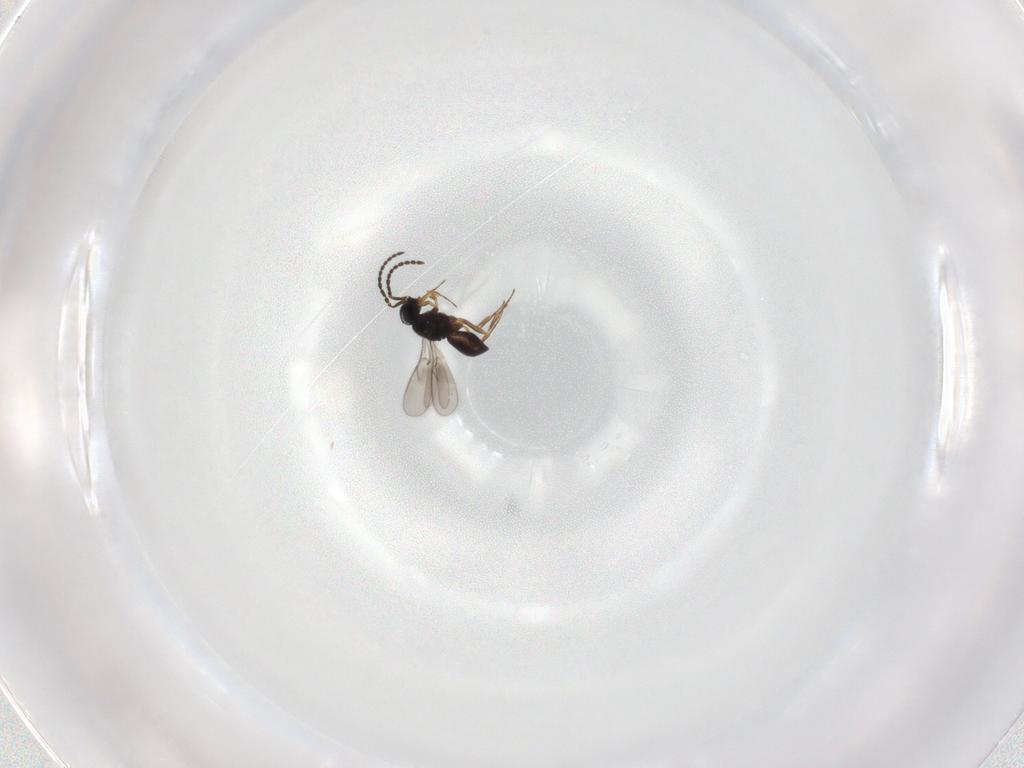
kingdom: Animalia
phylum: Arthropoda
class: Insecta
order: Hymenoptera
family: Scelionidae
